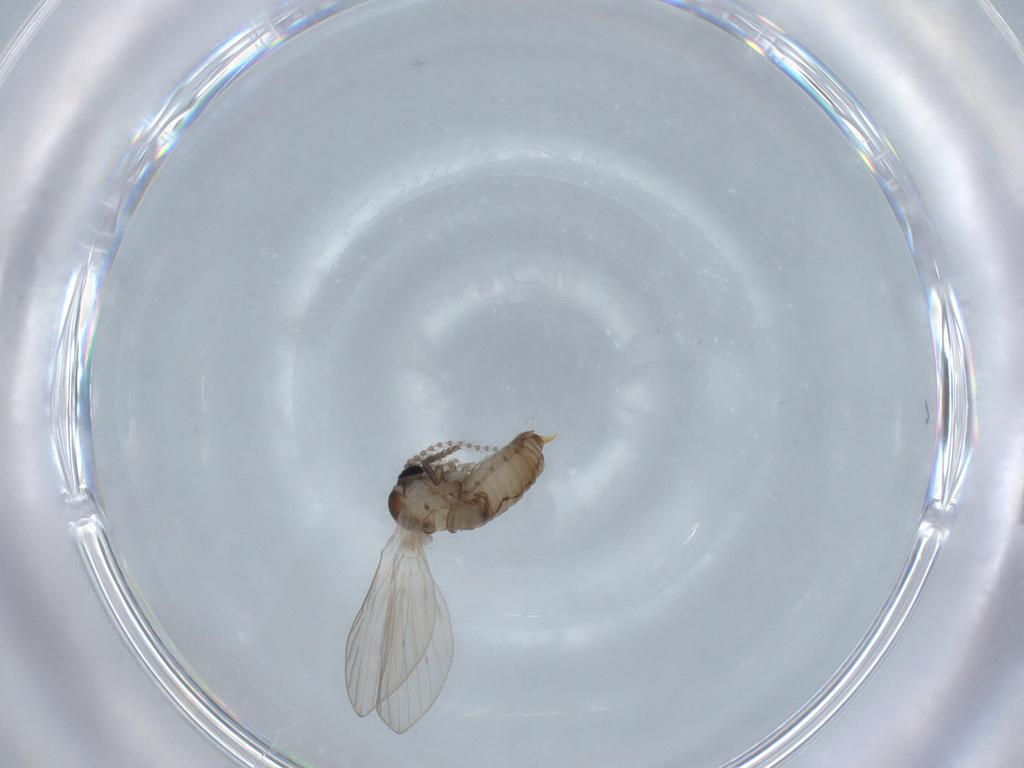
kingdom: Animalia
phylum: Arthropoda
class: Insecta
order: Diptera
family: Psychodidae
